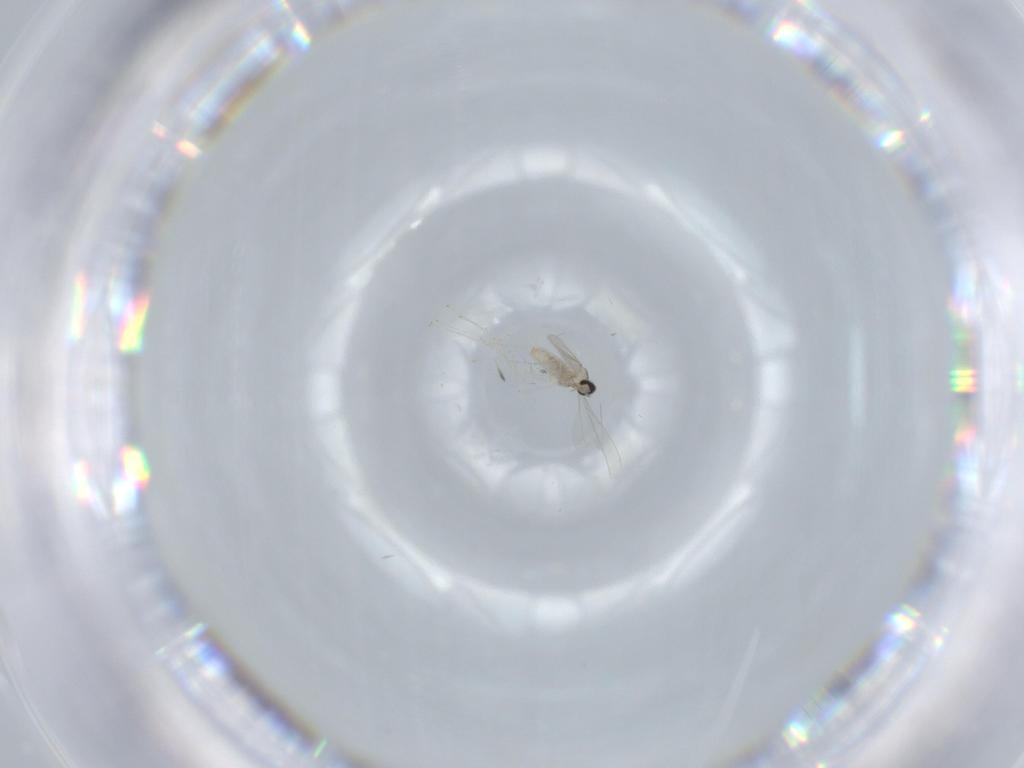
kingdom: Animalia
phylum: Arthropoda
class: Insecta
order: Diptera
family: Cecidomyiidae
